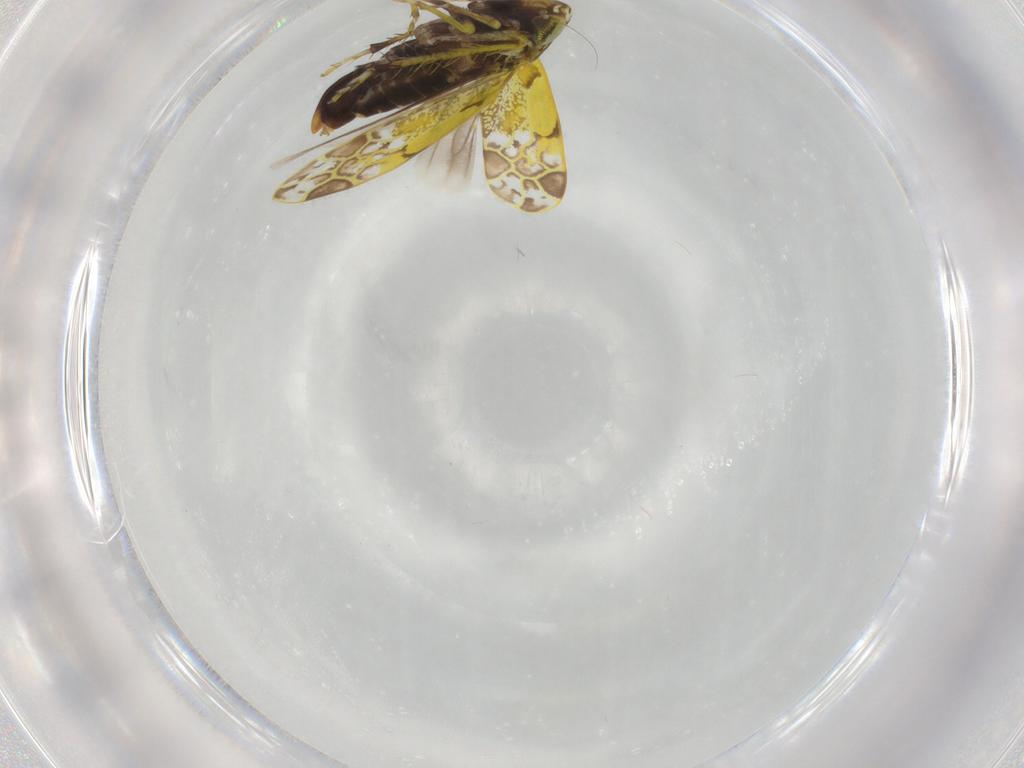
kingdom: Animalia
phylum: Arthropoda
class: Insecta
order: Hemiptera
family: Cicadellidae
